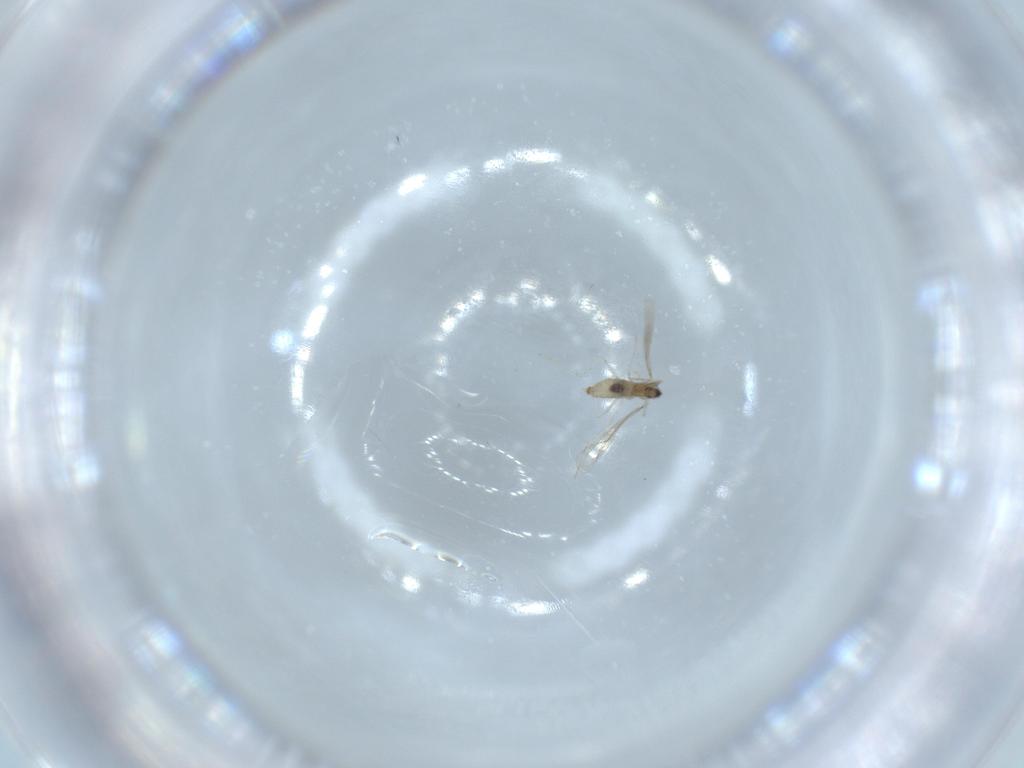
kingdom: Animalia
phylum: Arthropoda
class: Insecta
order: Diptera
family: Cecidomyiidae
